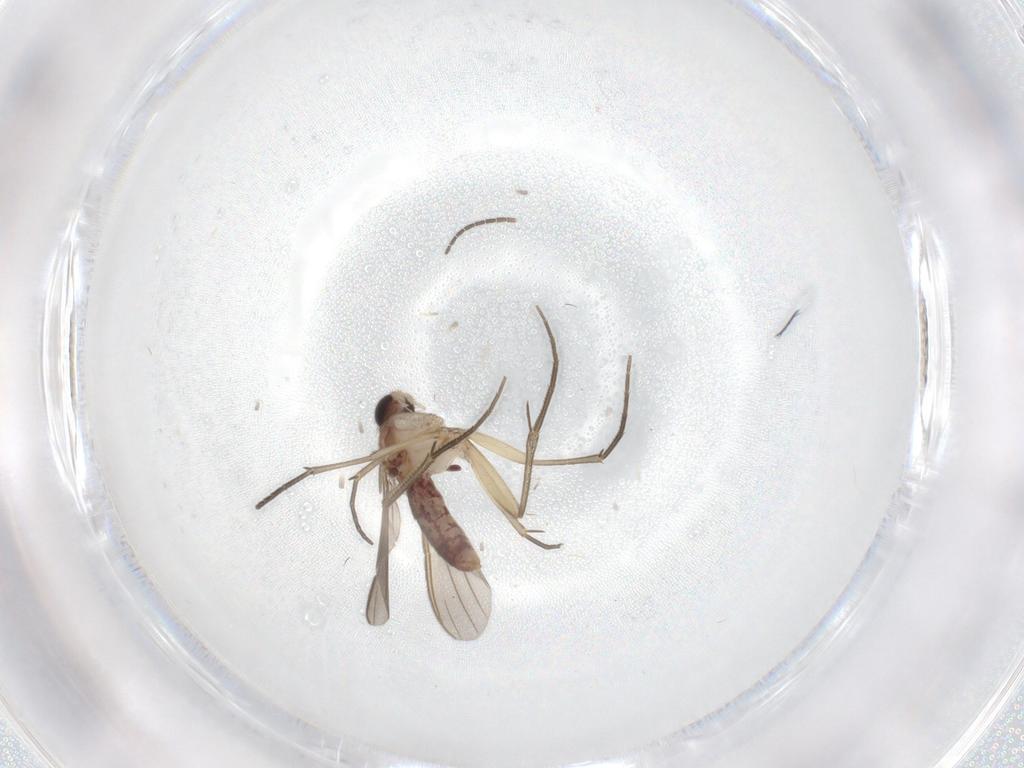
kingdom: Animalia
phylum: Arthropoda
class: Insecta
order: Diptera
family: Mycetophilidae
